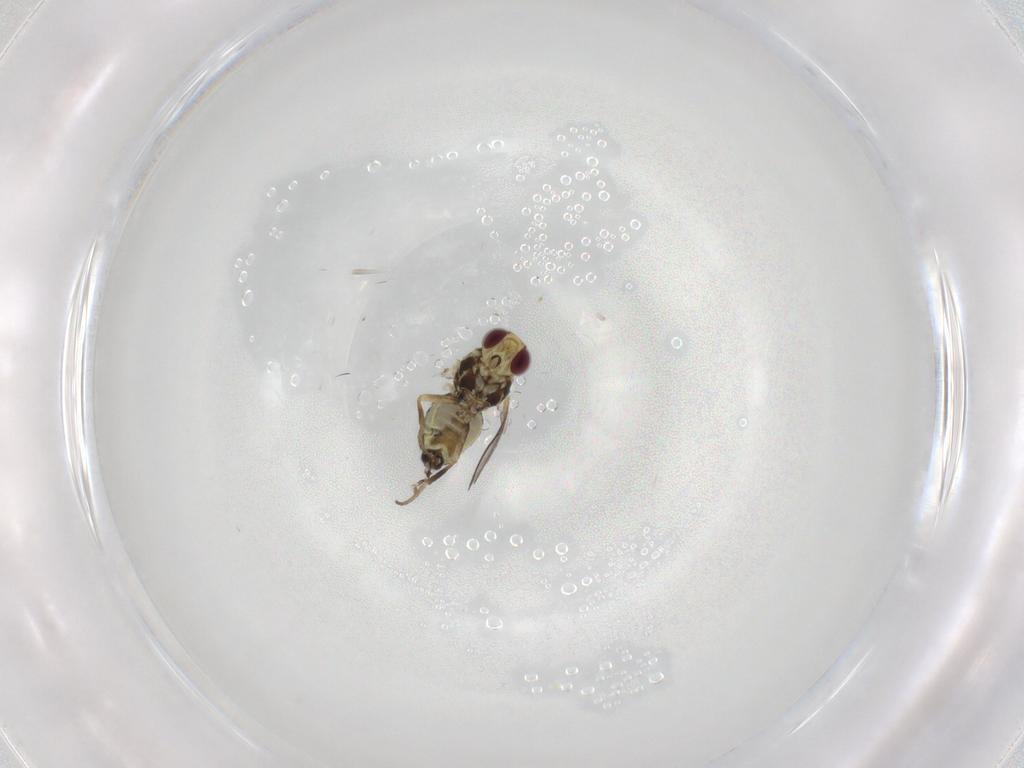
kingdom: Animalia
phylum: Arthropoda
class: Insecta
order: Diptera
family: Agromyzidae
